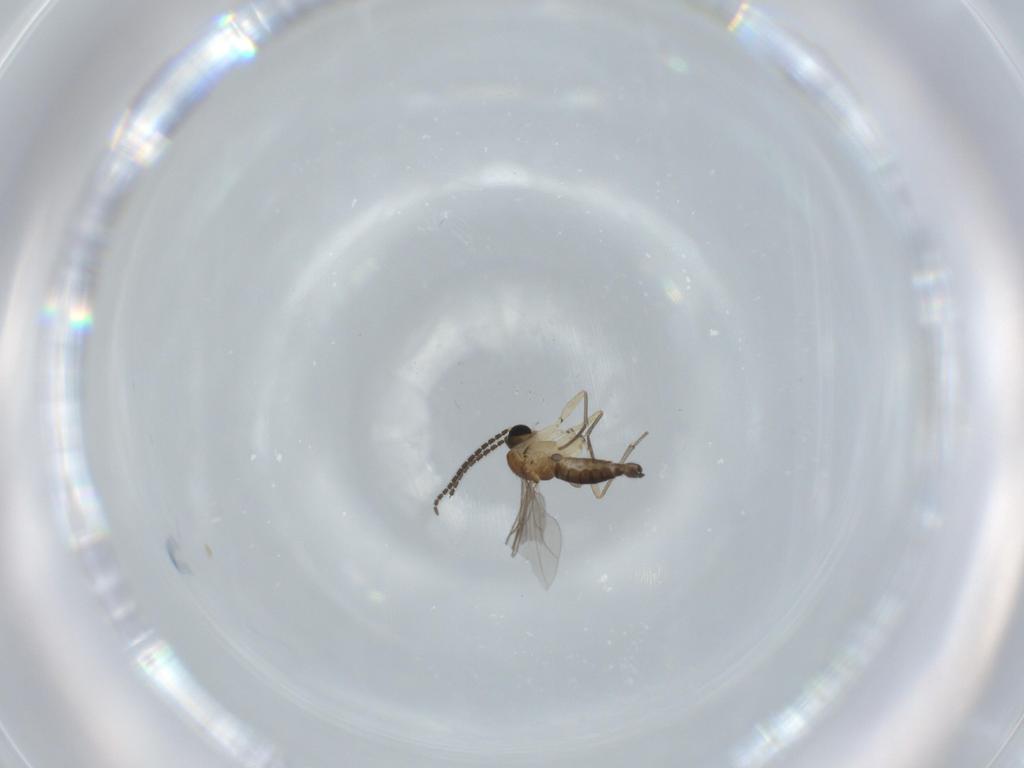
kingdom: Animalia
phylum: Arthropoda
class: Insecta
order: Diptera
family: Cecidomyiidae
